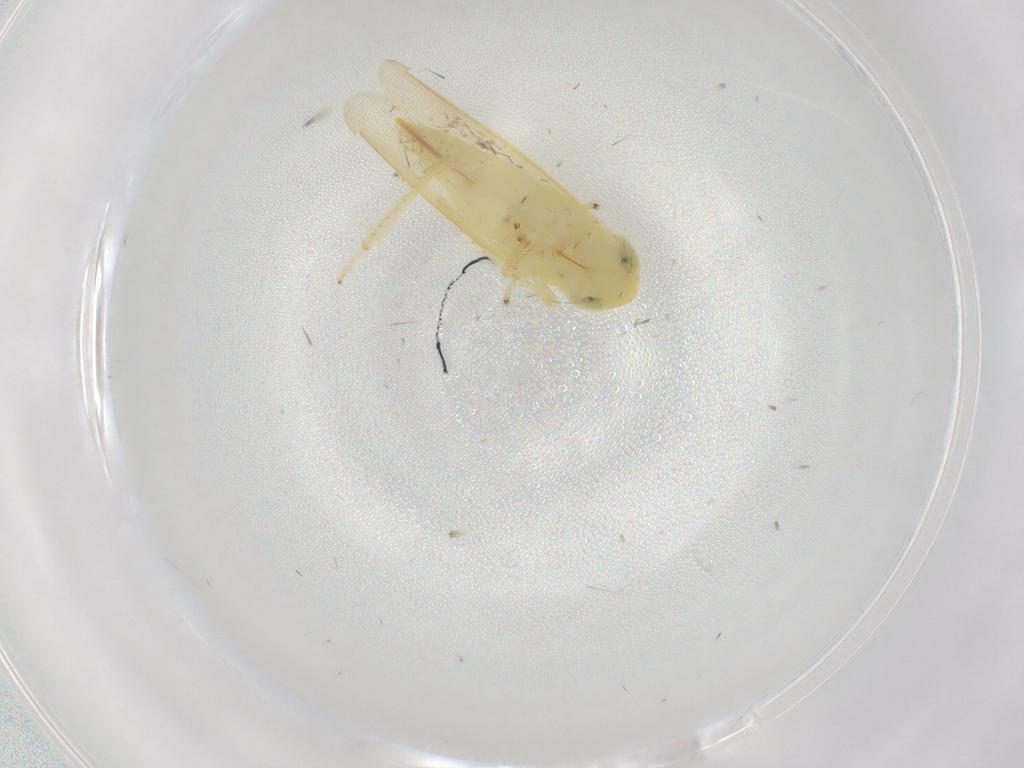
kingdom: Animalia
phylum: Arthropoda
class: Insecta
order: Hemiptera
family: Cicadellidae
